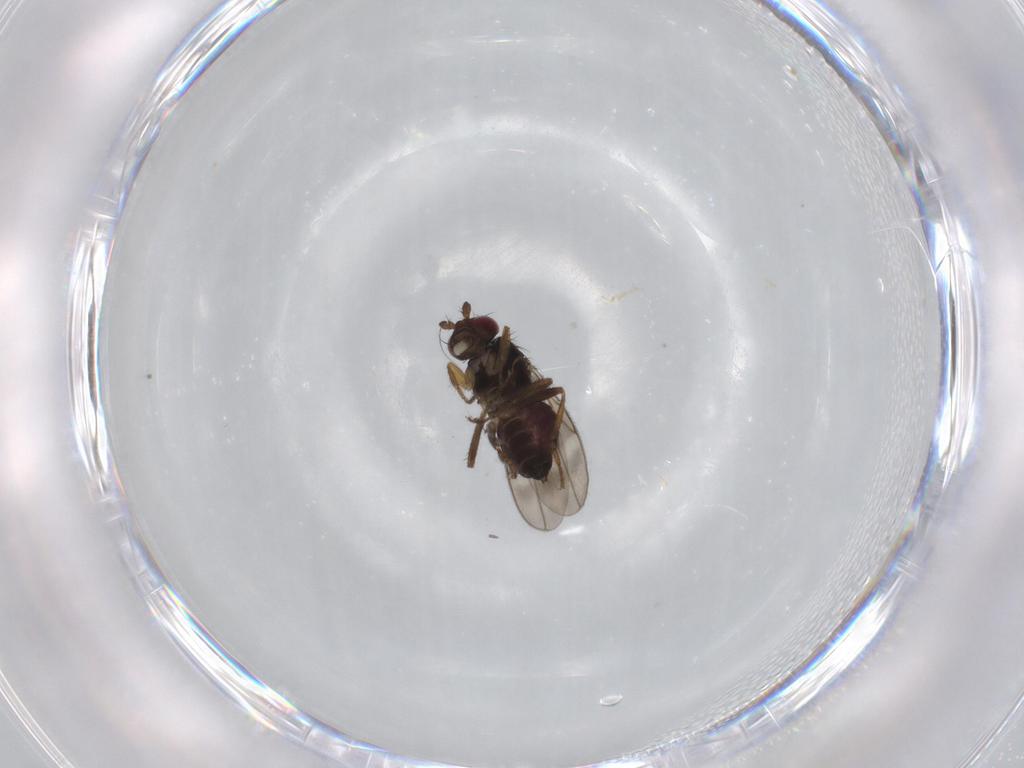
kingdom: Animalia
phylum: Arthropoda
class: Insecta
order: Diptera
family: Sphaeroceridae
